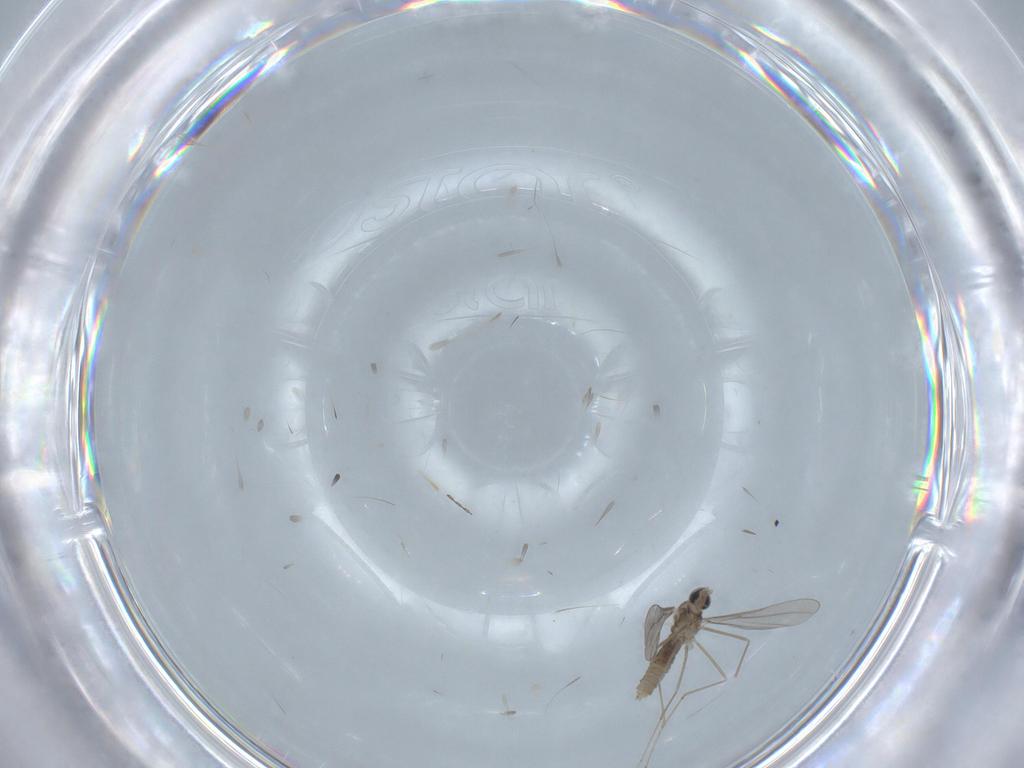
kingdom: Animalia
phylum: Arthropoda
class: Insecta
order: Diptera
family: Cecidomyiidae
